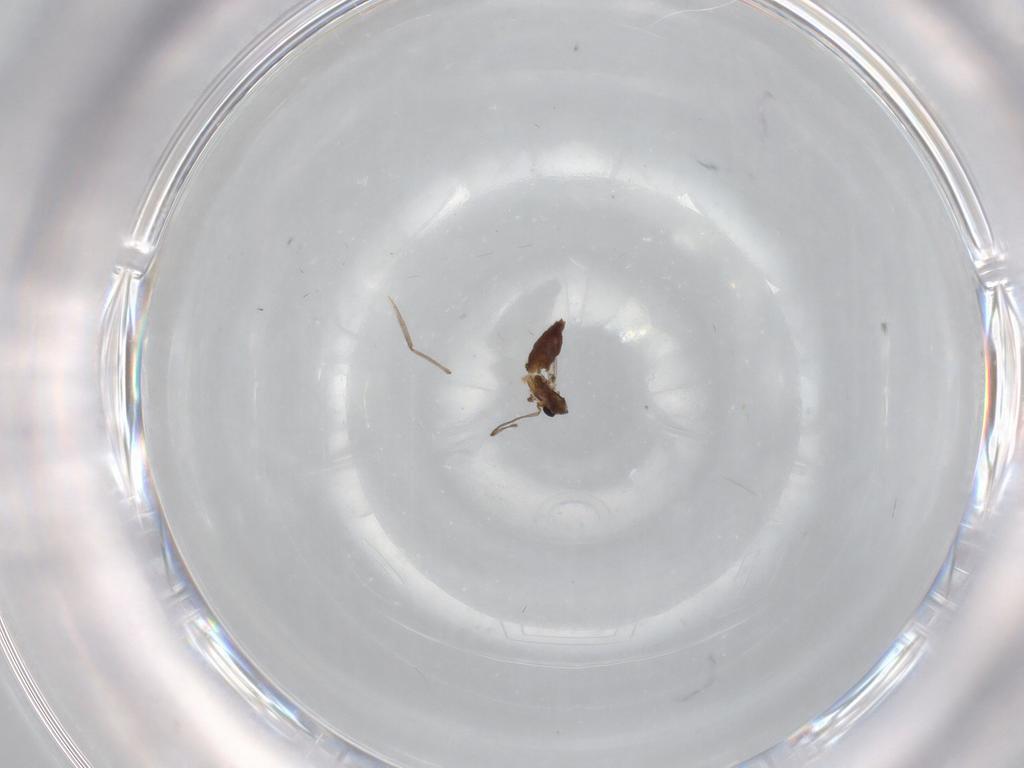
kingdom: Animalia
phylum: Arthropoda
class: Insecta
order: Diptera
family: Chironomidae
